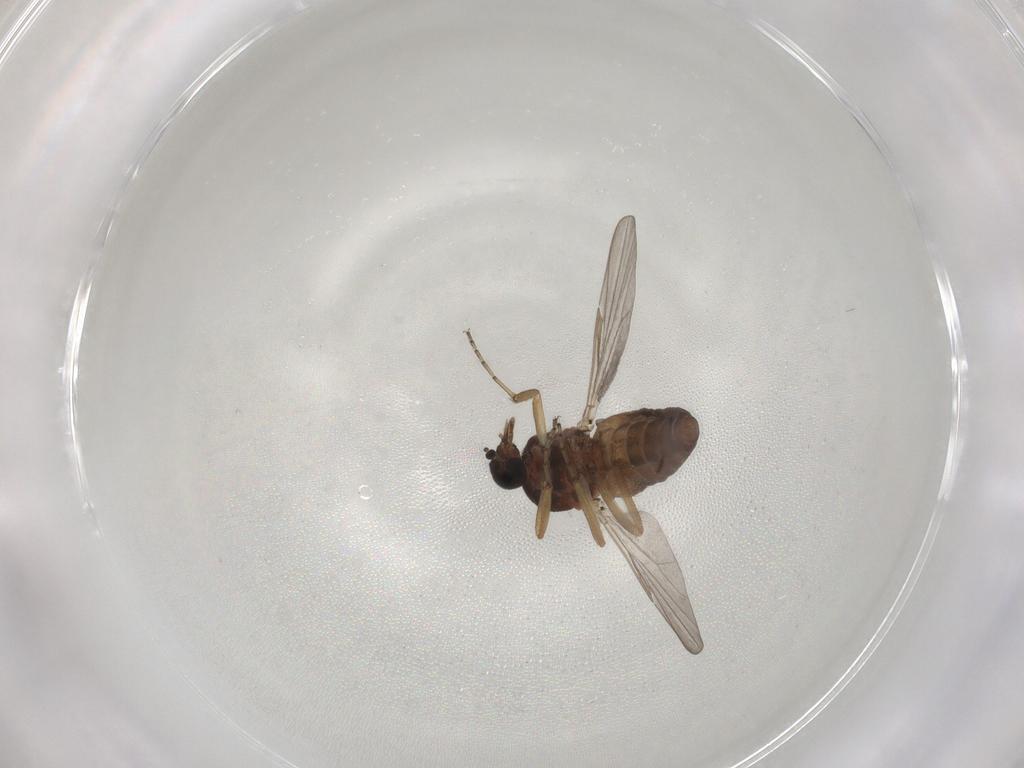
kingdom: Animalia
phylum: Arthropoda
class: Insecta
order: Diptera
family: Ceratopogonidae
